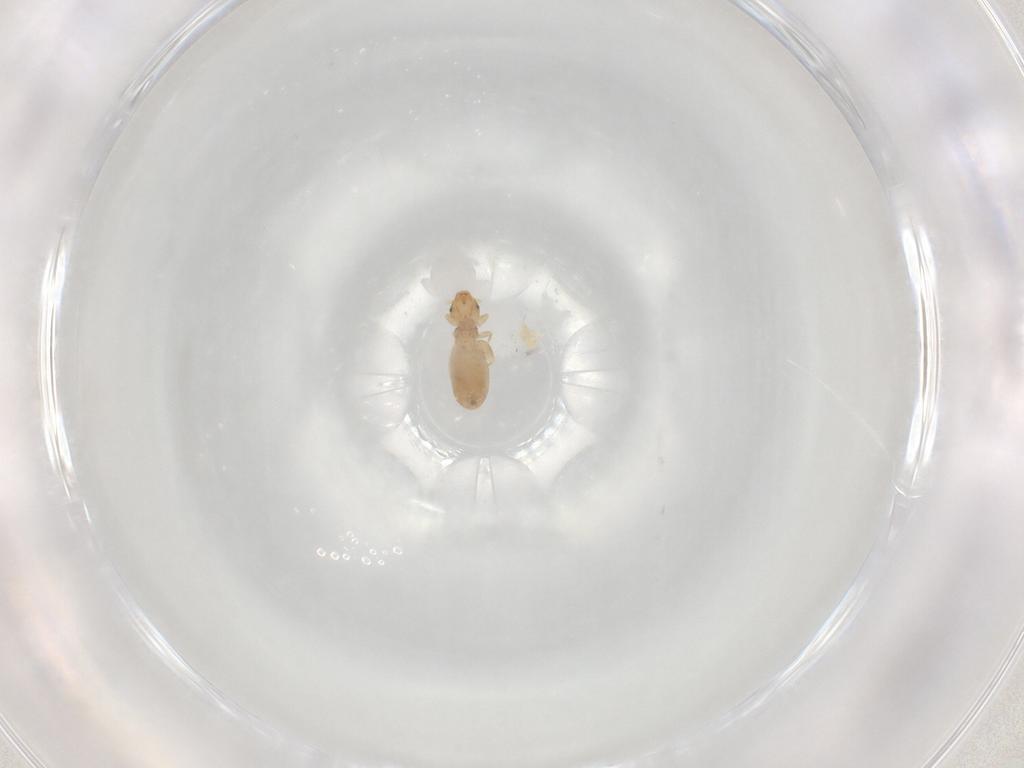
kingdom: Animalia
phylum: Arthropoda
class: Insecta
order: Psocodea
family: Liposcelididae
